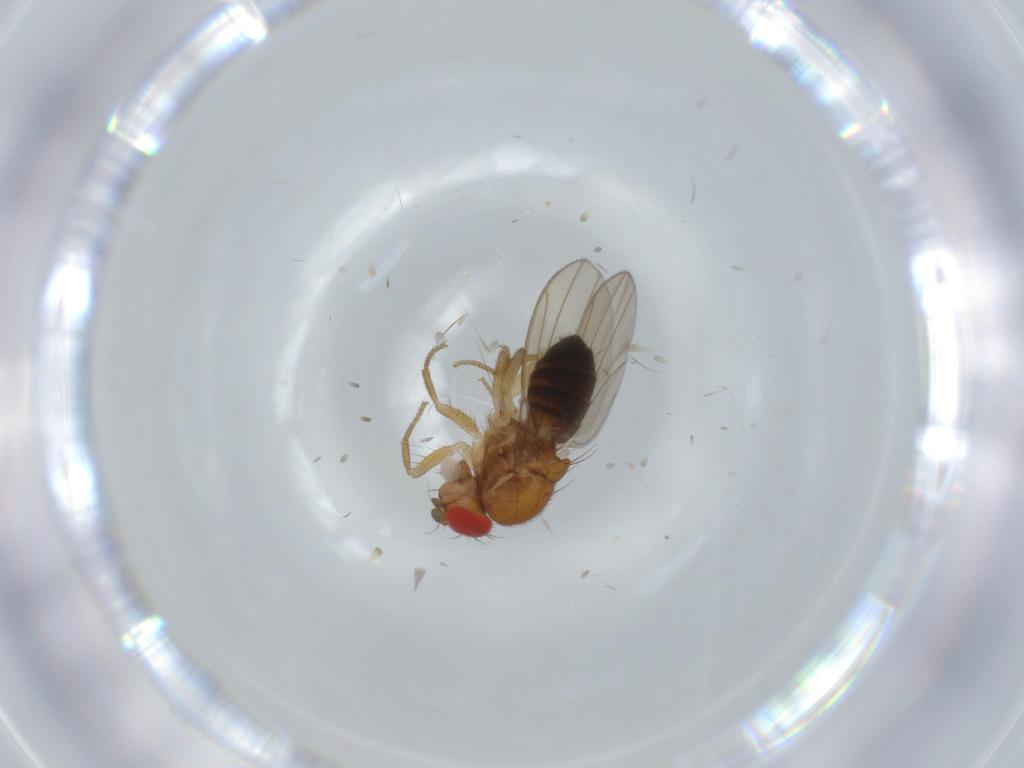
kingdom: Animalia
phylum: Arthropoda
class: Insecta
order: Diptera
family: Drosophilidae
